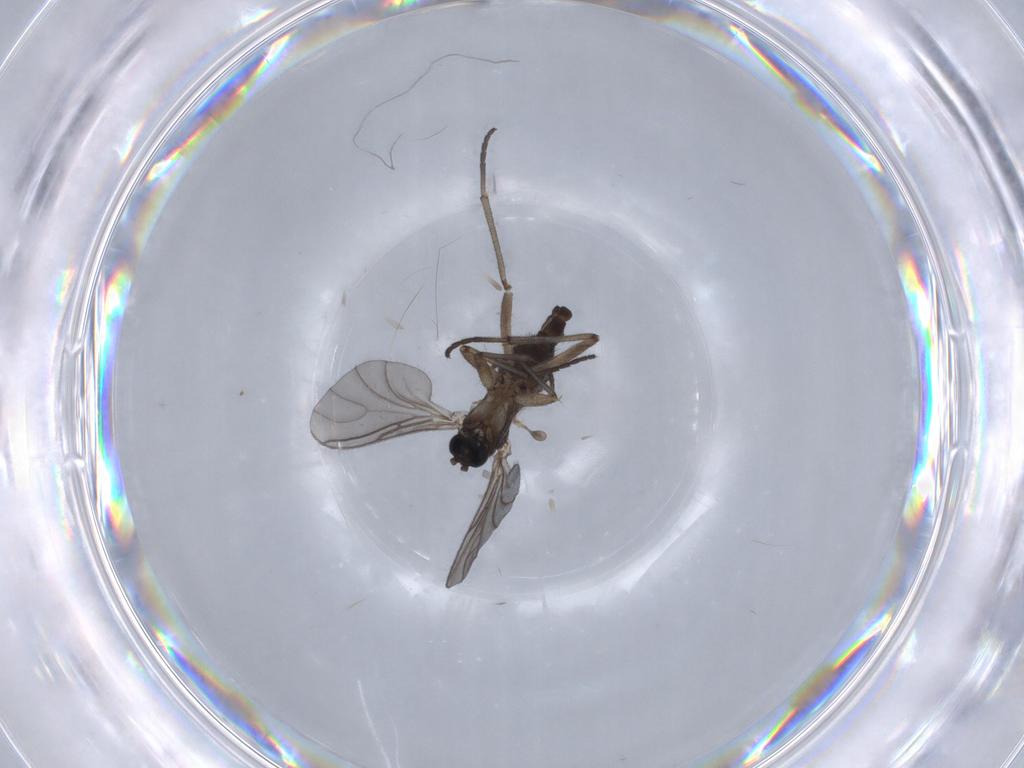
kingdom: Animalia
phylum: Arthropoda
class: Insecta
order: Diptera
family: Sciaridae
